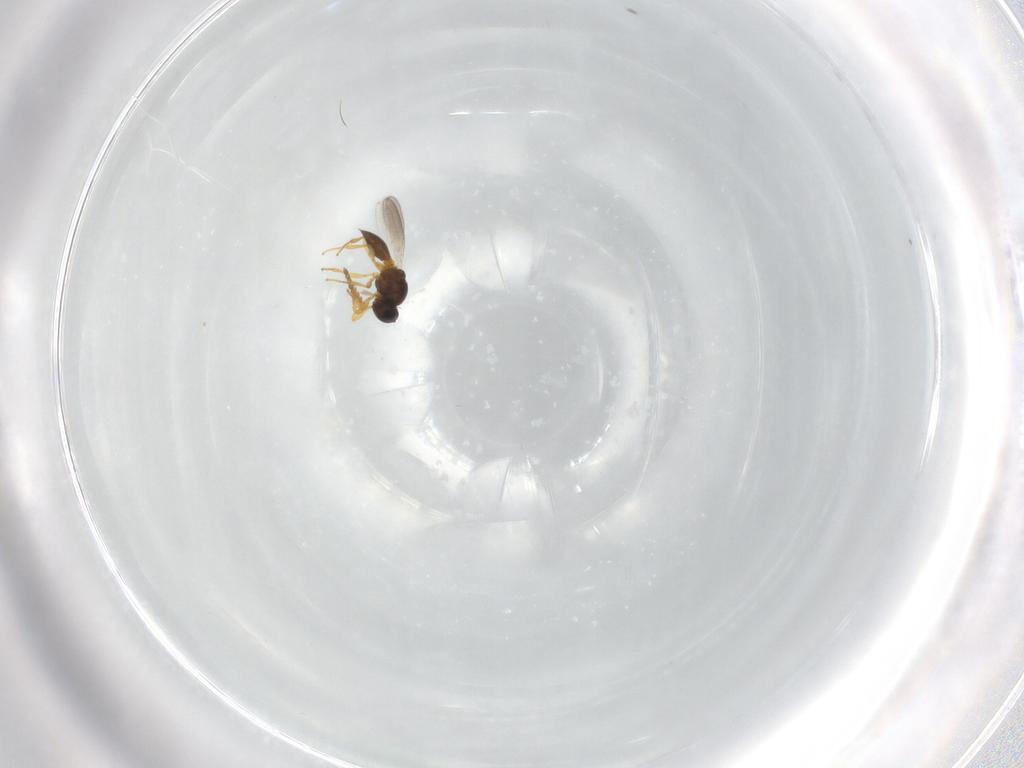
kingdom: Animalia
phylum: Arthropoda
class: Insecta
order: Hymenoptera
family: Platygastridae
